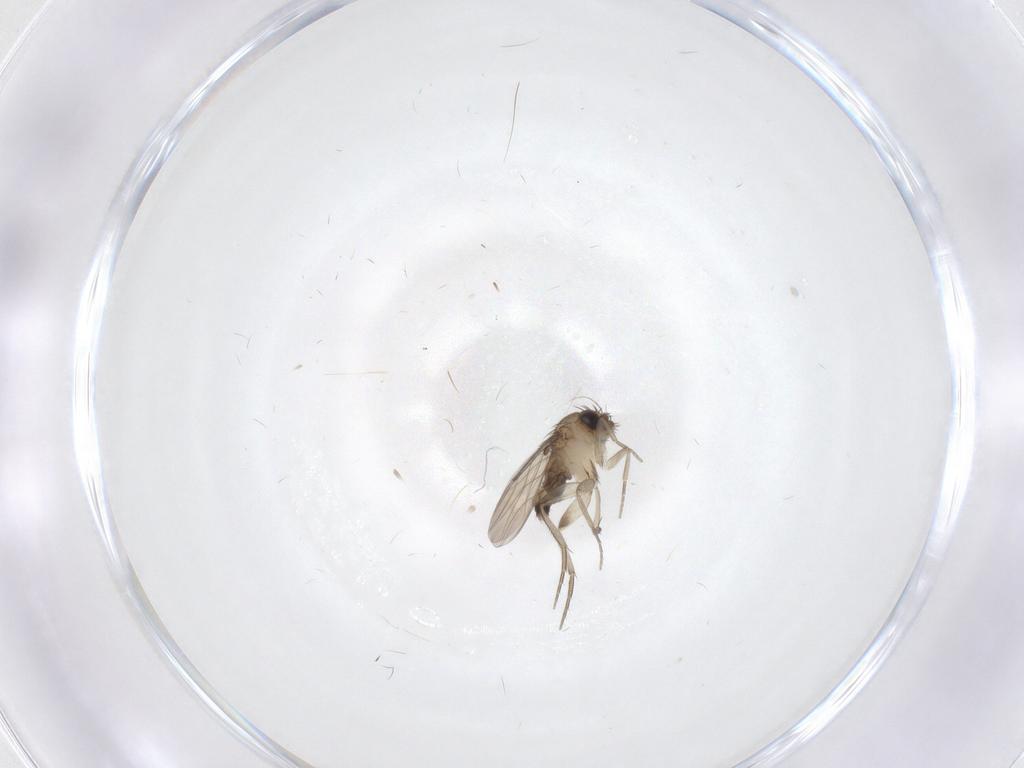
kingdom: Animalia
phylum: Arthropoda
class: Insecta
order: Diptera
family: Phoridae
